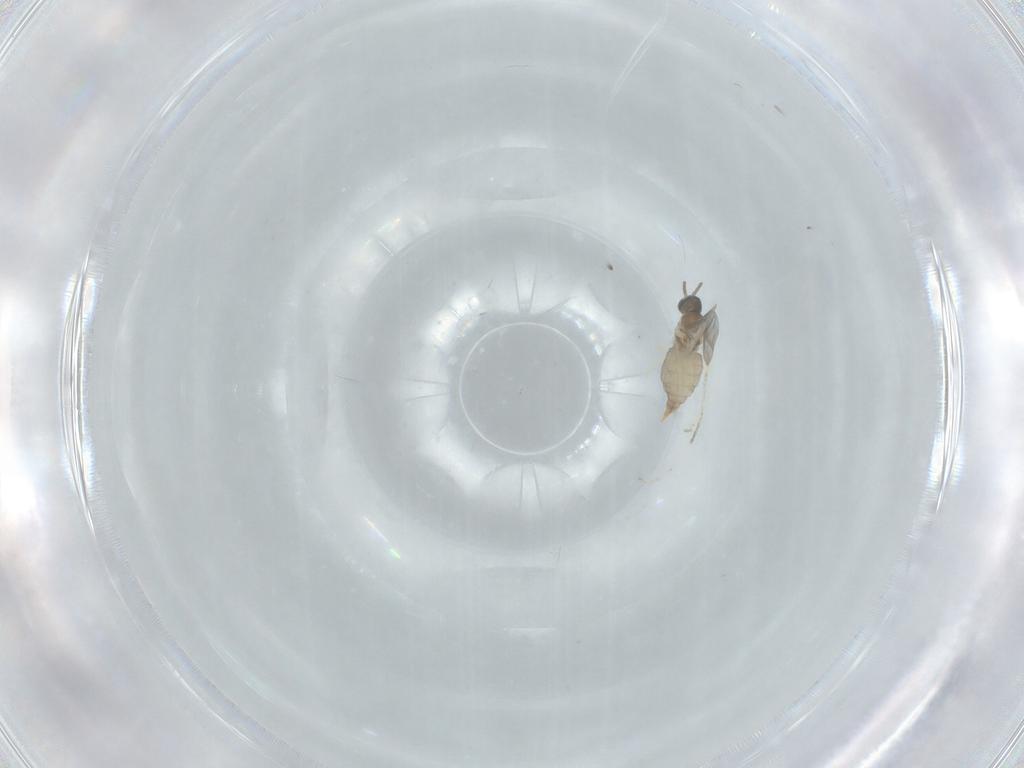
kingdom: Animalia
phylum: Arthropoda
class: Insecta
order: Diptera
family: Cecidomyiidae
